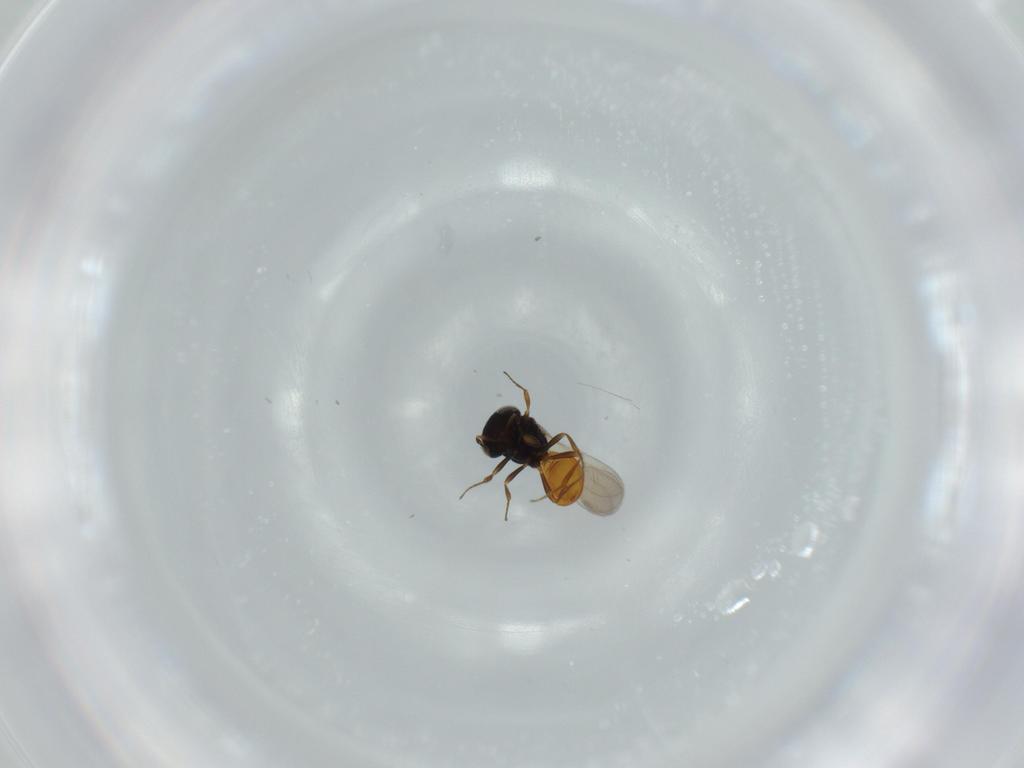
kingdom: Animalia
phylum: Arthropoda
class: Insecta
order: Hymenoptera
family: Scelionidae
